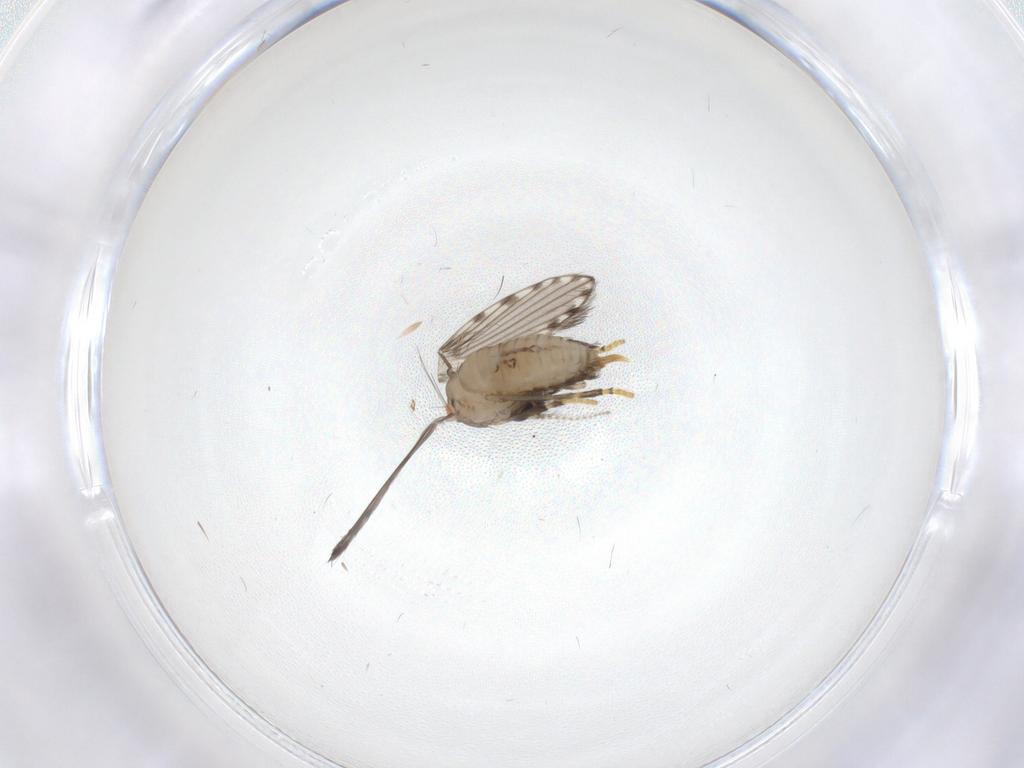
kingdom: Animalia
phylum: Arthropoda
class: Insecta
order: Diptera
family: Psychodidae
